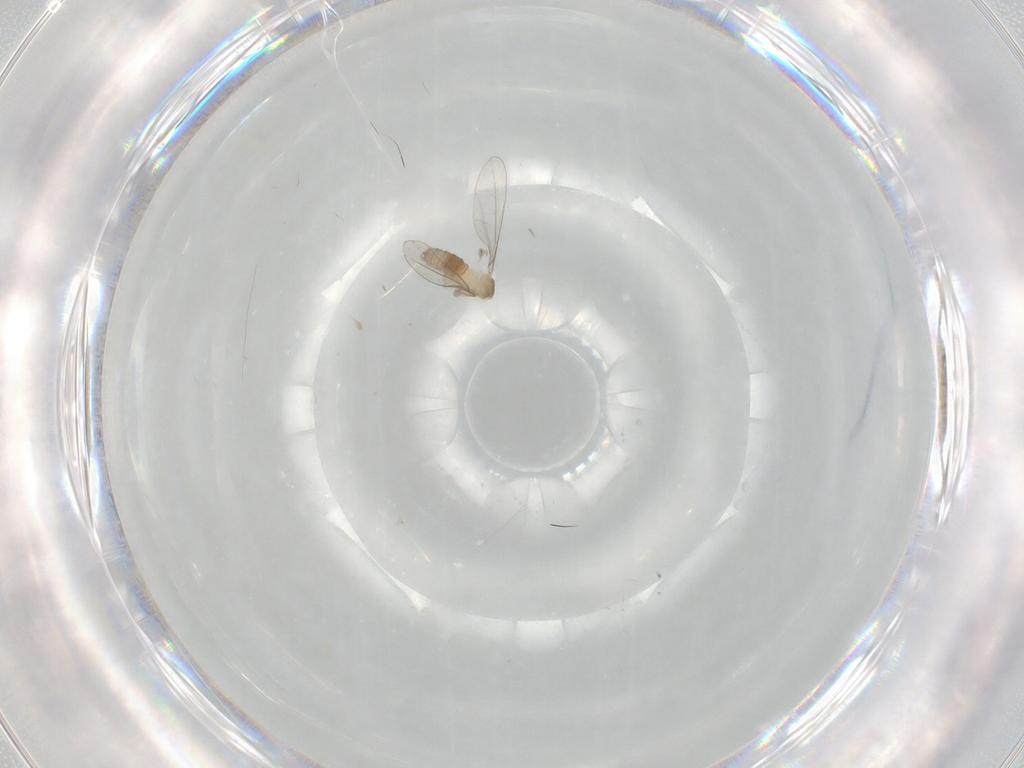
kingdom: Animalia
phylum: Arthropoda
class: Insecta
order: Diptera
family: Cecidomyiidae
